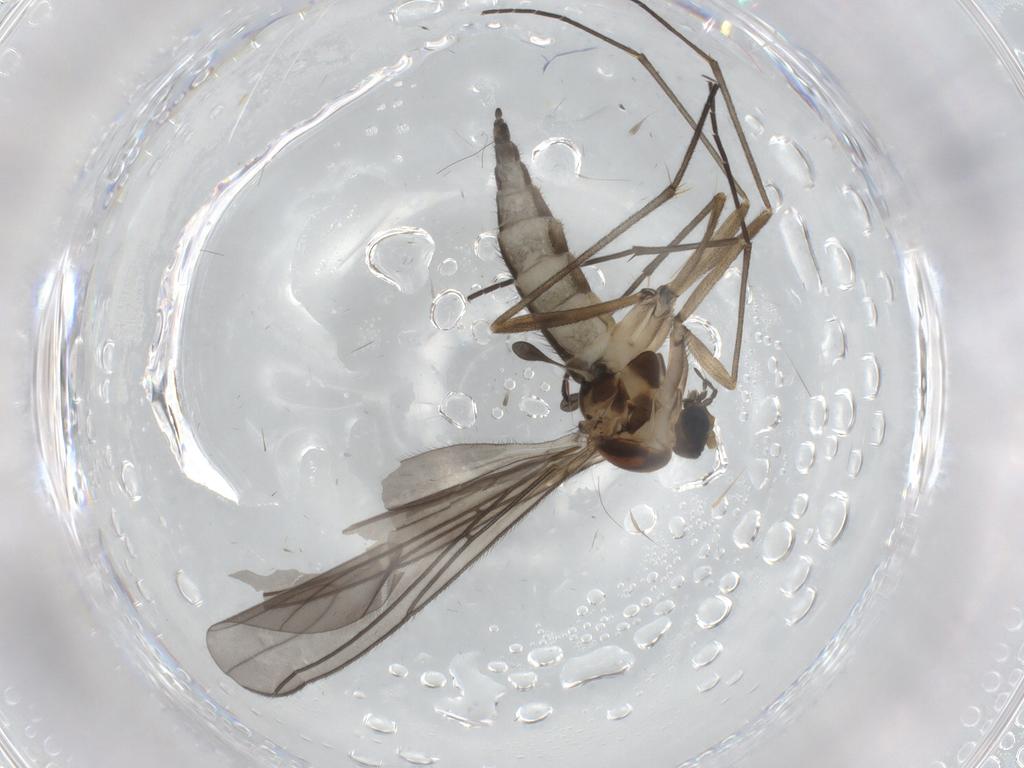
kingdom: Animalia
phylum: Arthropoda
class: Insecta
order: Diptera
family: Sciaridae
